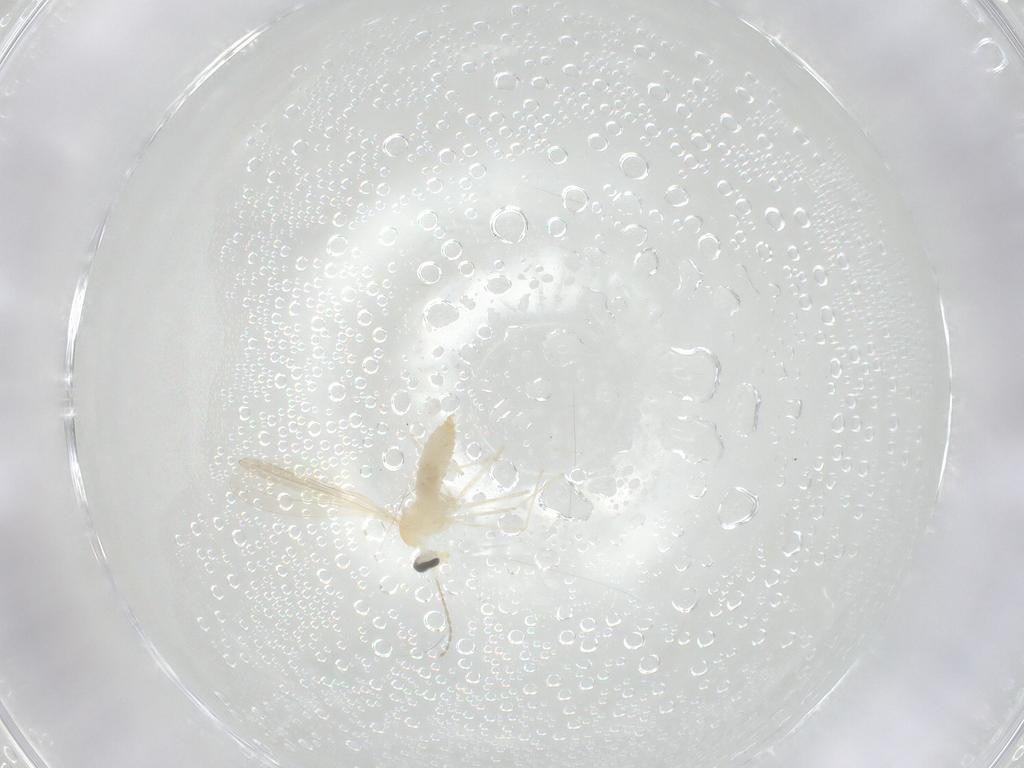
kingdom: Animalia
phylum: Arthropoda
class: Insecta
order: Diptera
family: Cecidomyiidae
